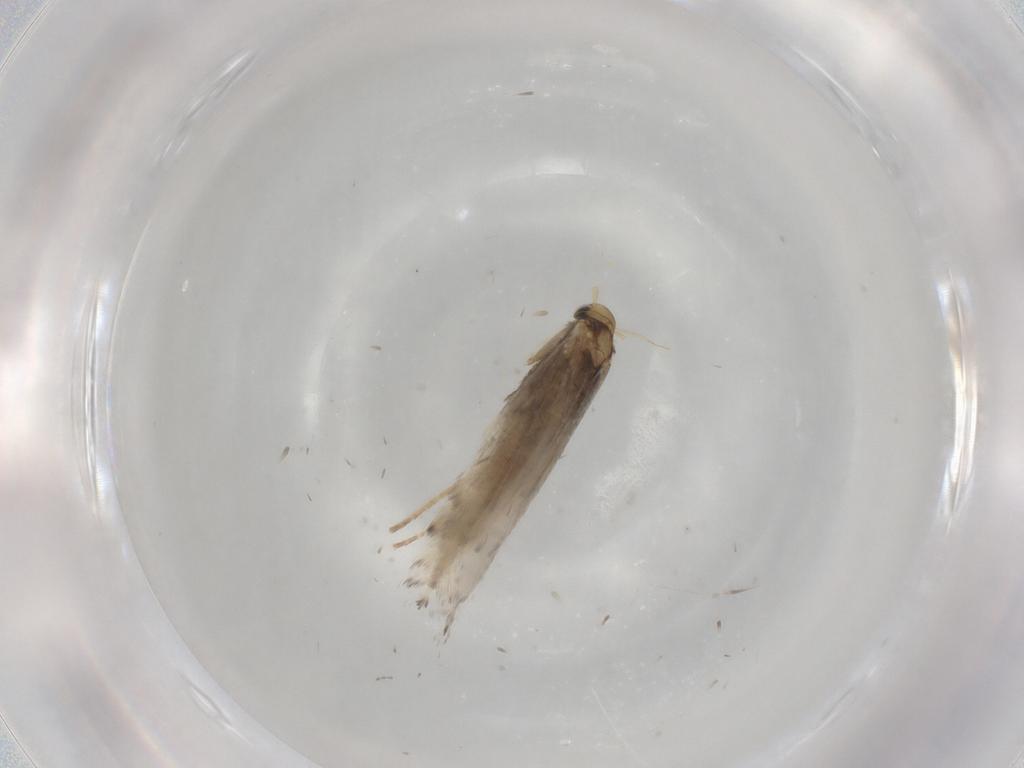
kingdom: Animalia
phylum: Arthropoda
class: Insecta
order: Lepidoptera
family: Gracillariidae
